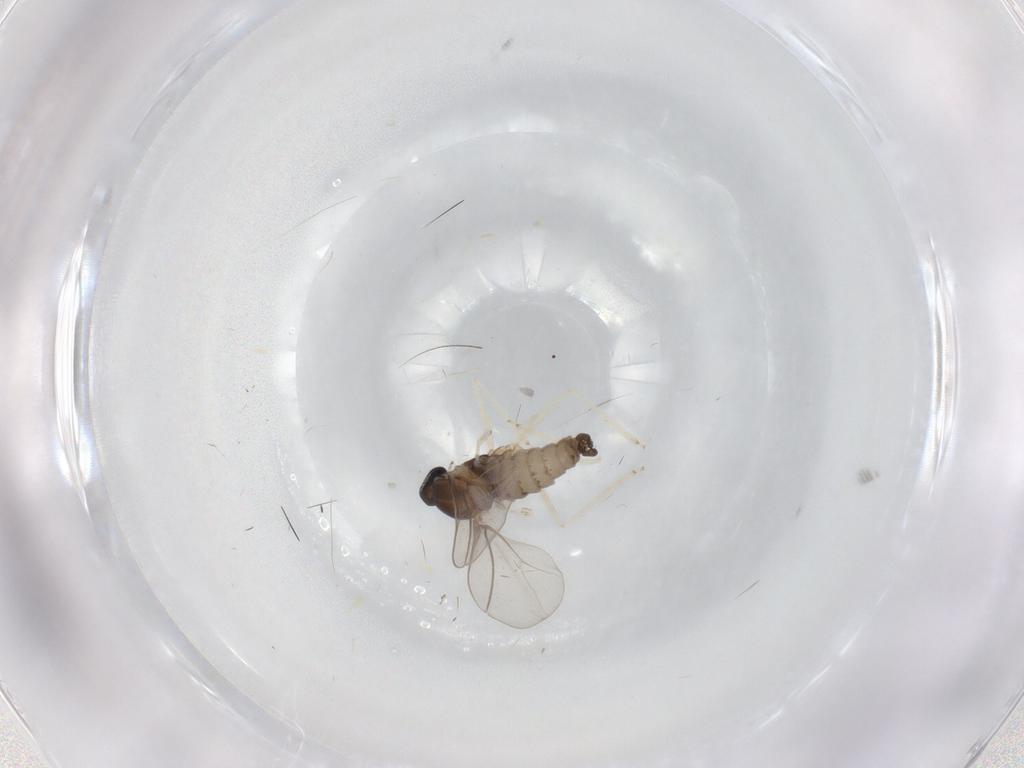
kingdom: Animalia
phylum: Arthropoda
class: Insecta
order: Diptera
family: Cecidomyiidae
